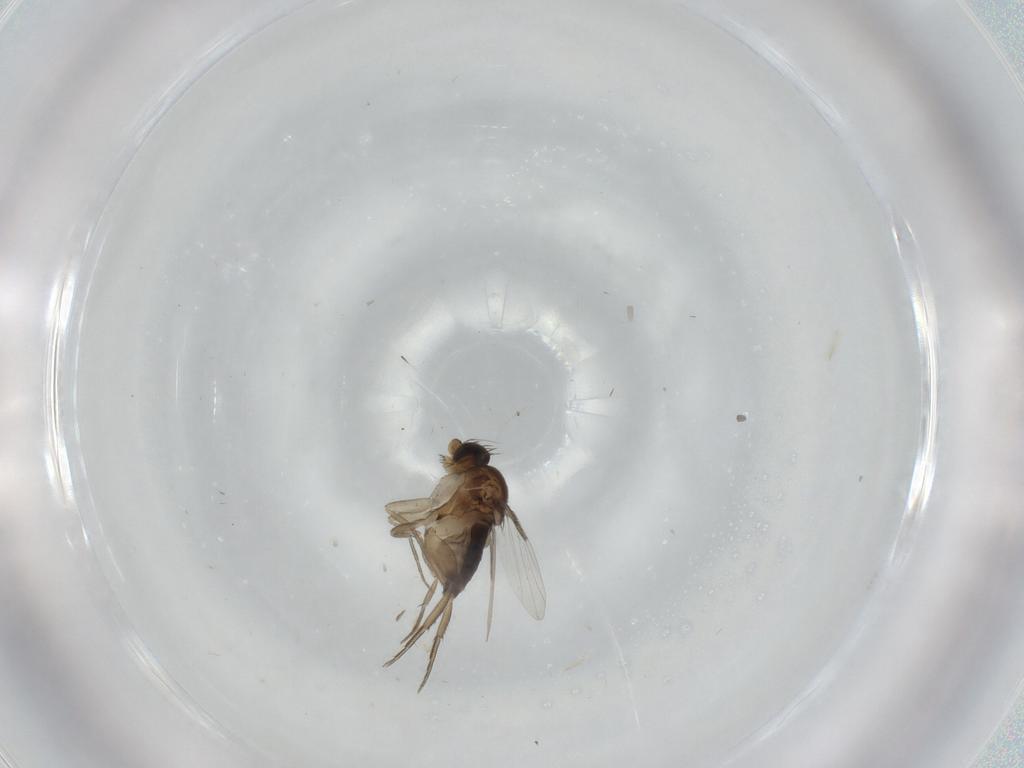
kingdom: Animalia
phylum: Arthropoda
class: Insecta
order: Diptera
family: Phoridae
